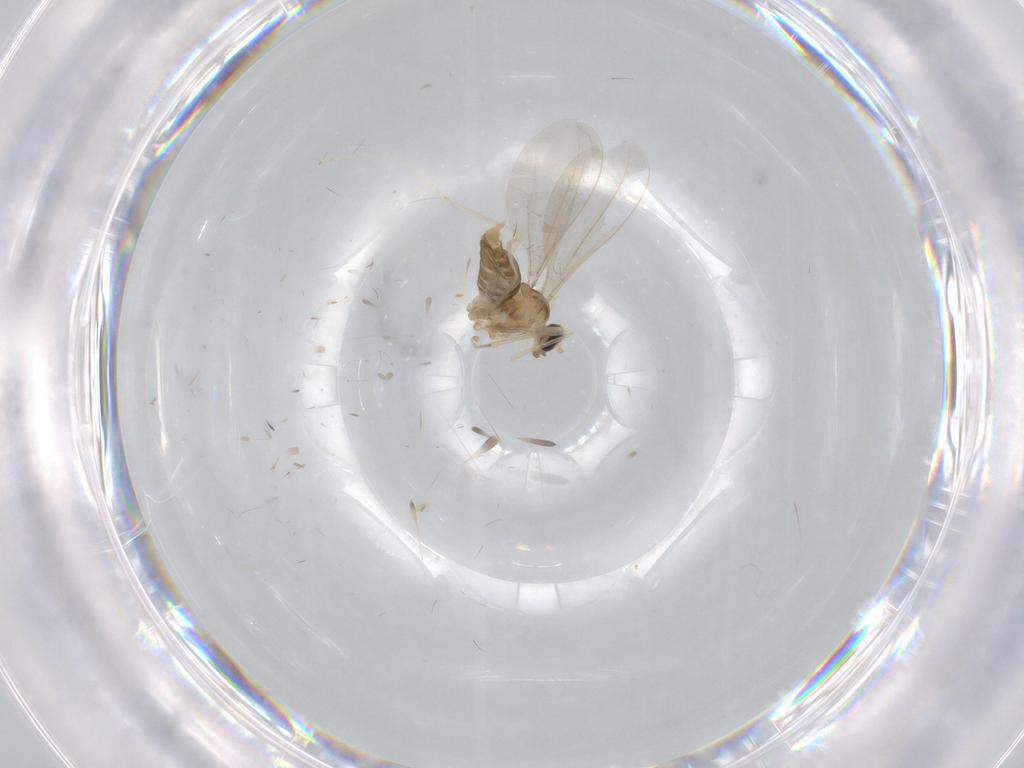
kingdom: Animalia
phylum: Arthropoda
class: Insecta
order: Diptera
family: Cecidomyiidae
